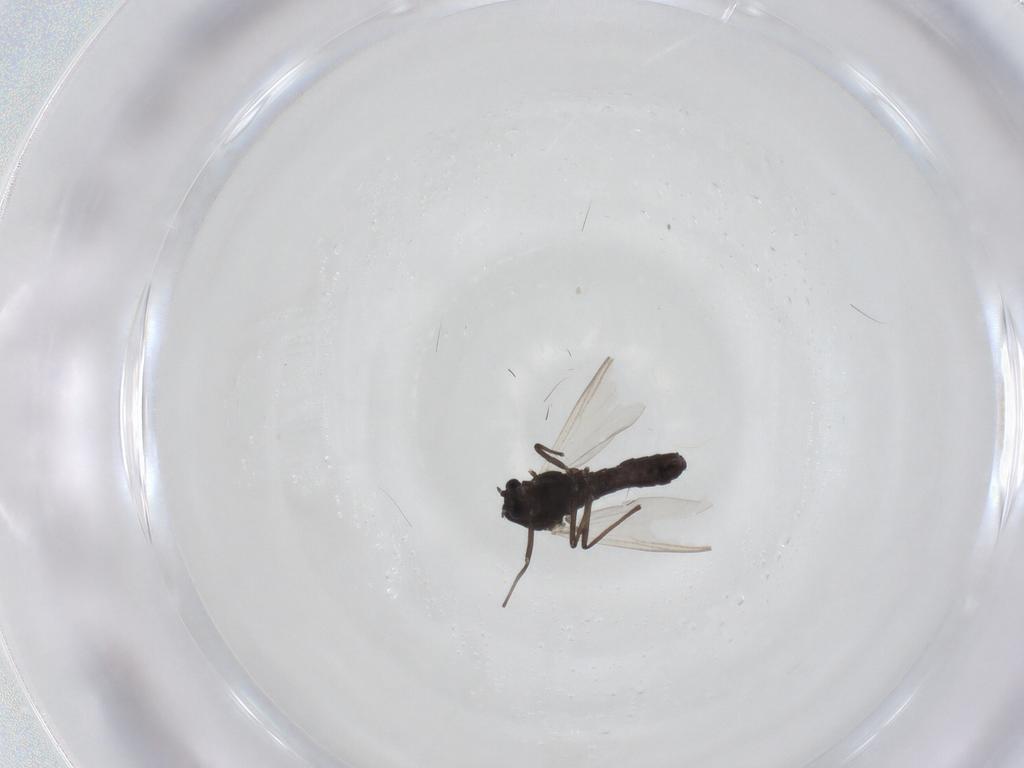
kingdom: Animalia
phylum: Arthropoda
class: Insecta
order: Diptera
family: Chironomidae
